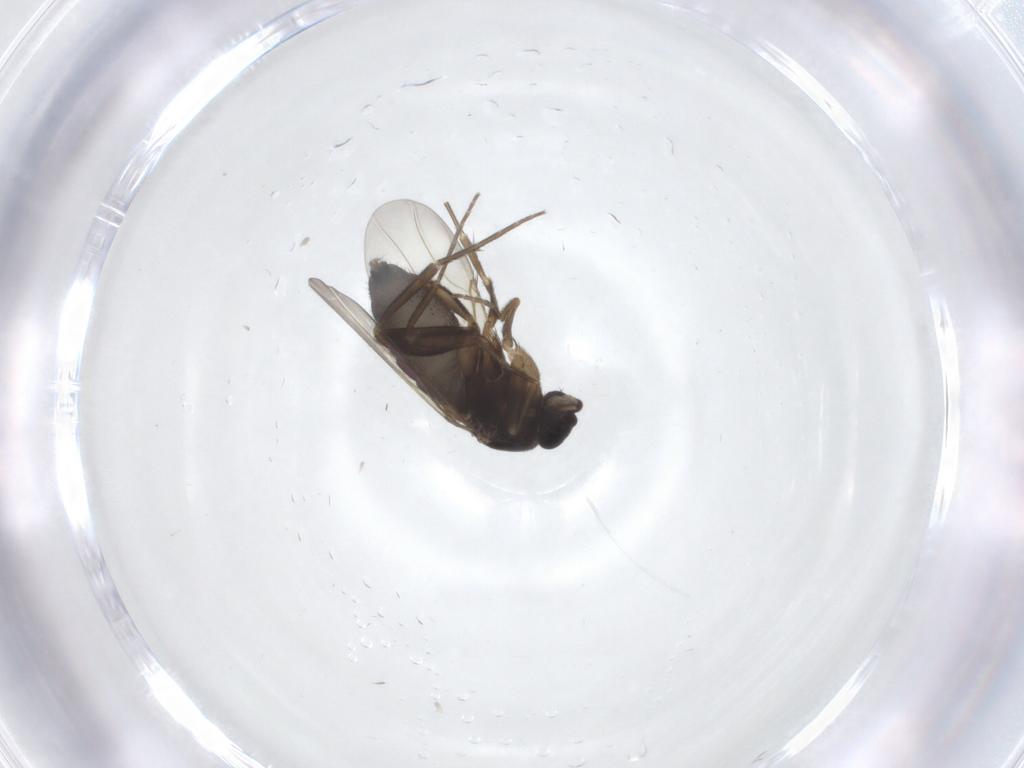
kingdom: Animalia
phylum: Arthropoda
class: Insecta
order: Diptera
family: Phoridae
